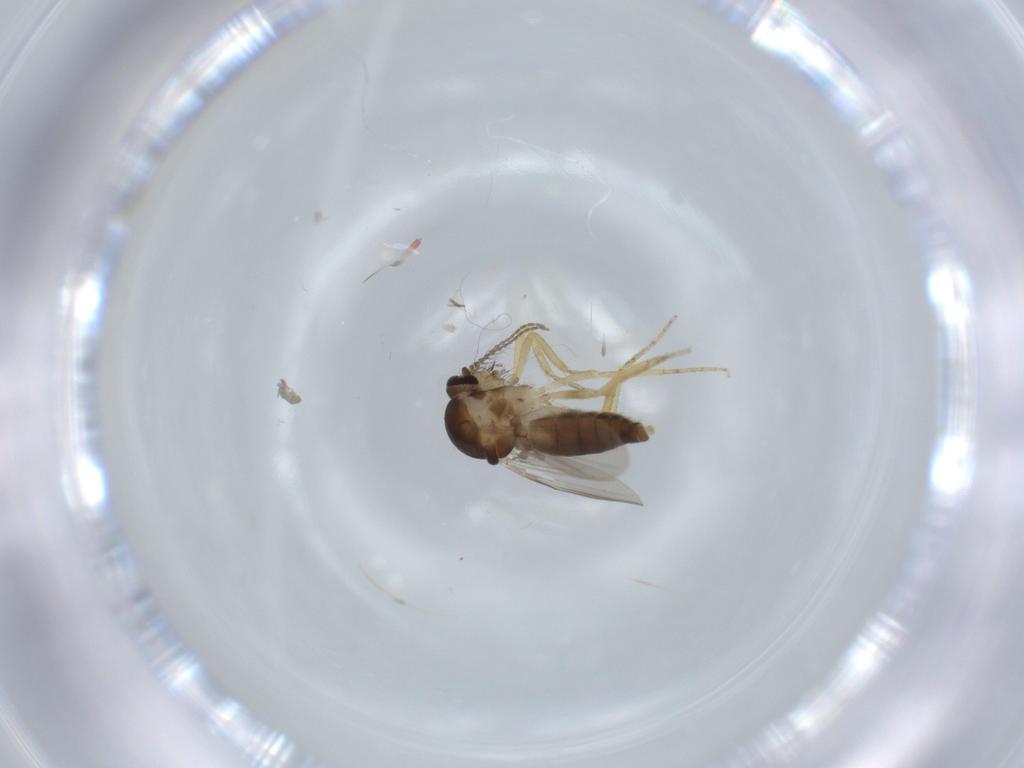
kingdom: Animalia
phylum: Arthropoda
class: Insecta
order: Diptera
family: Ceratopogonidae
